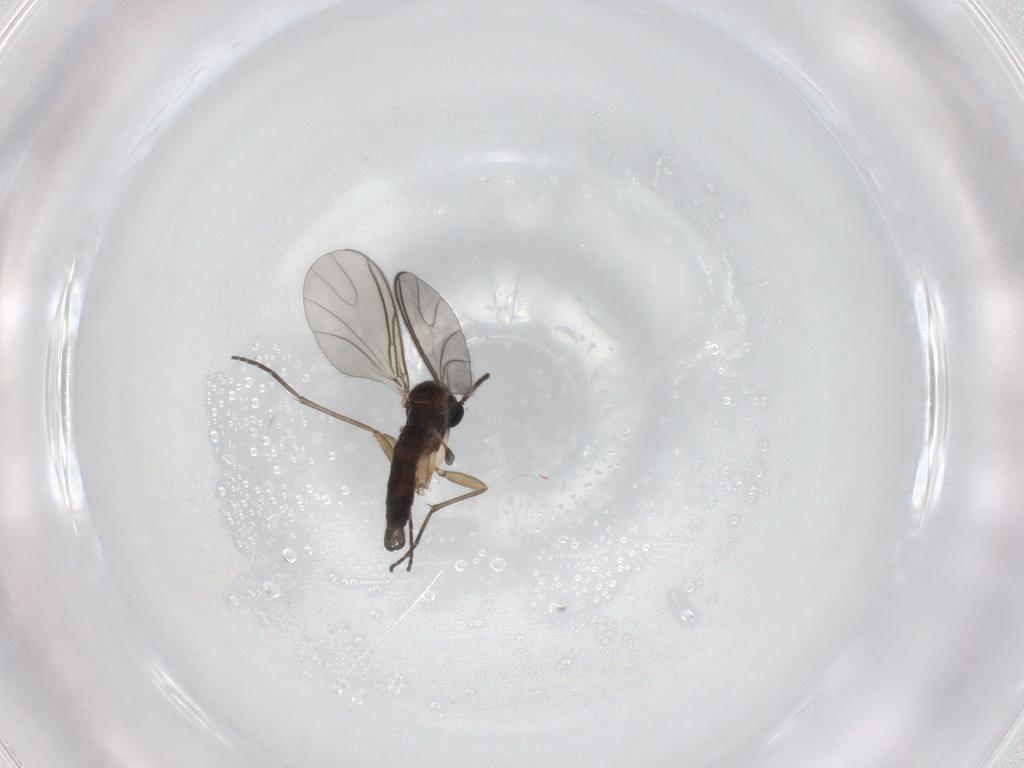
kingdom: Animalia
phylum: Arthropoda
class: Insecta
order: Diptera
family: Sciaridae
